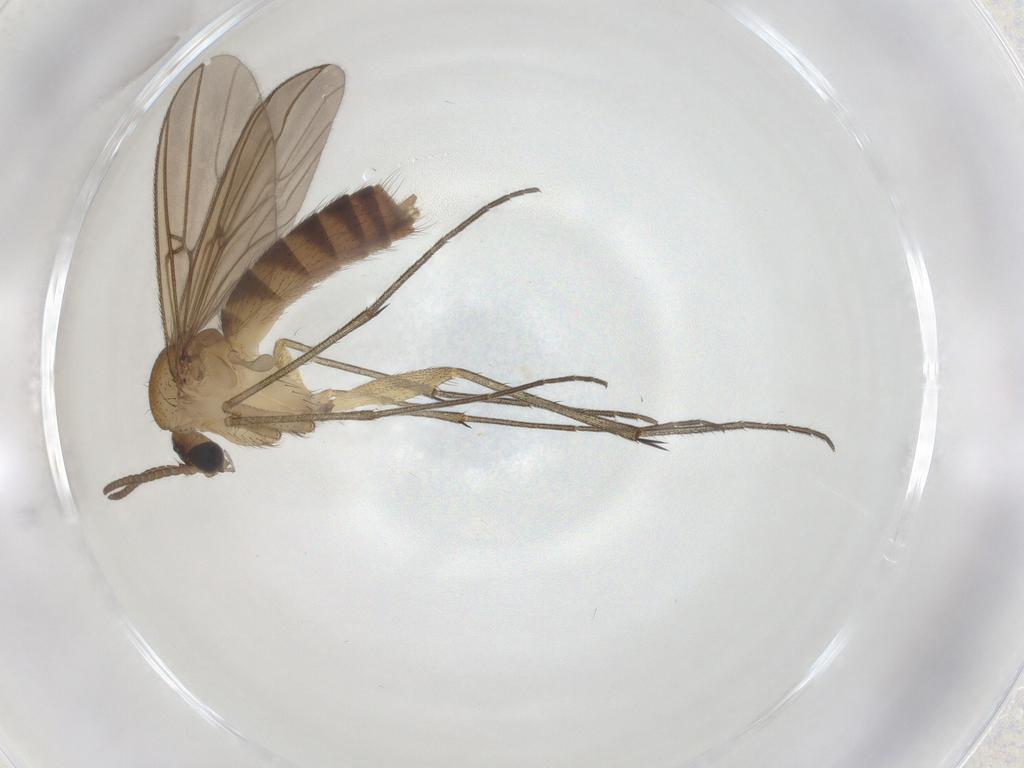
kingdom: Animalia
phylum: Arthropoda
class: Insecta
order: Diptera
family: Mycetophilidae
